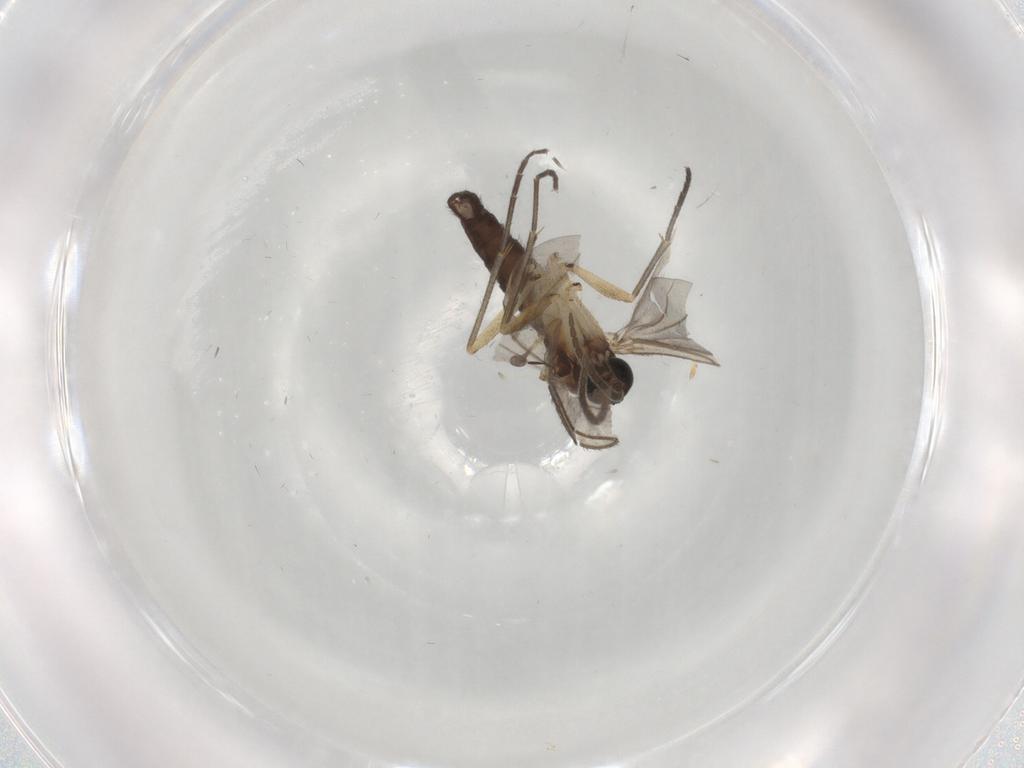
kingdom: Animalia
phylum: Arthropoda
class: Insecta
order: Diptera
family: Sciaridae
